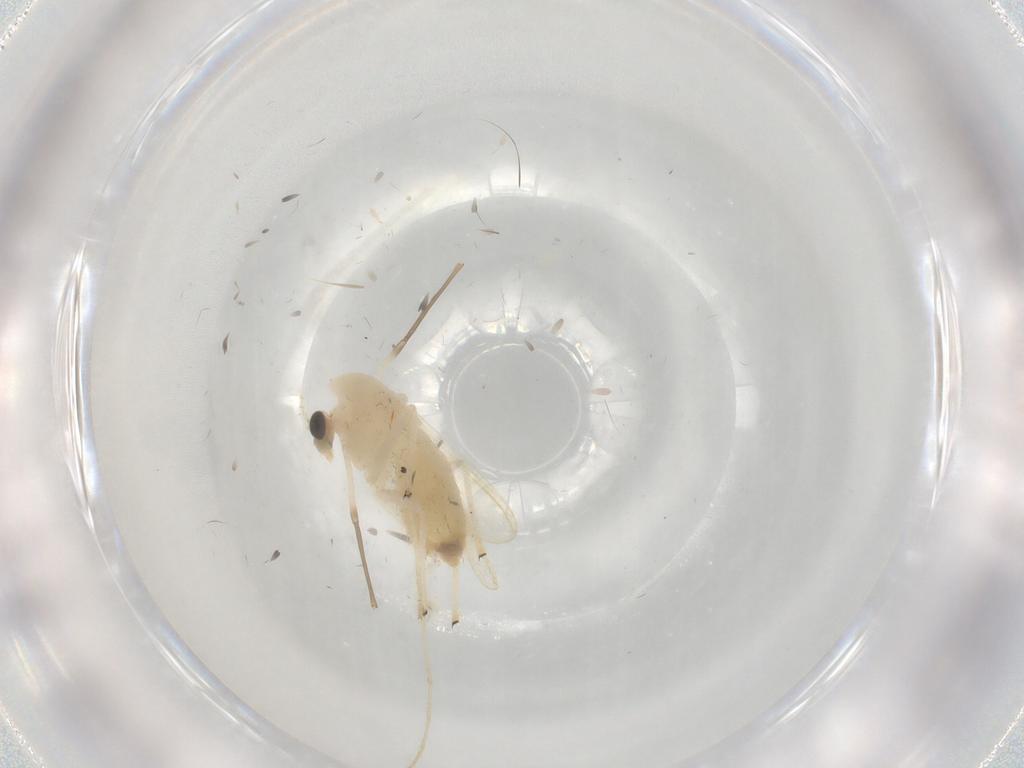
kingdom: Animalia
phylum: Arthropoda
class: Insecta
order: Diptera
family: Chironomidae
